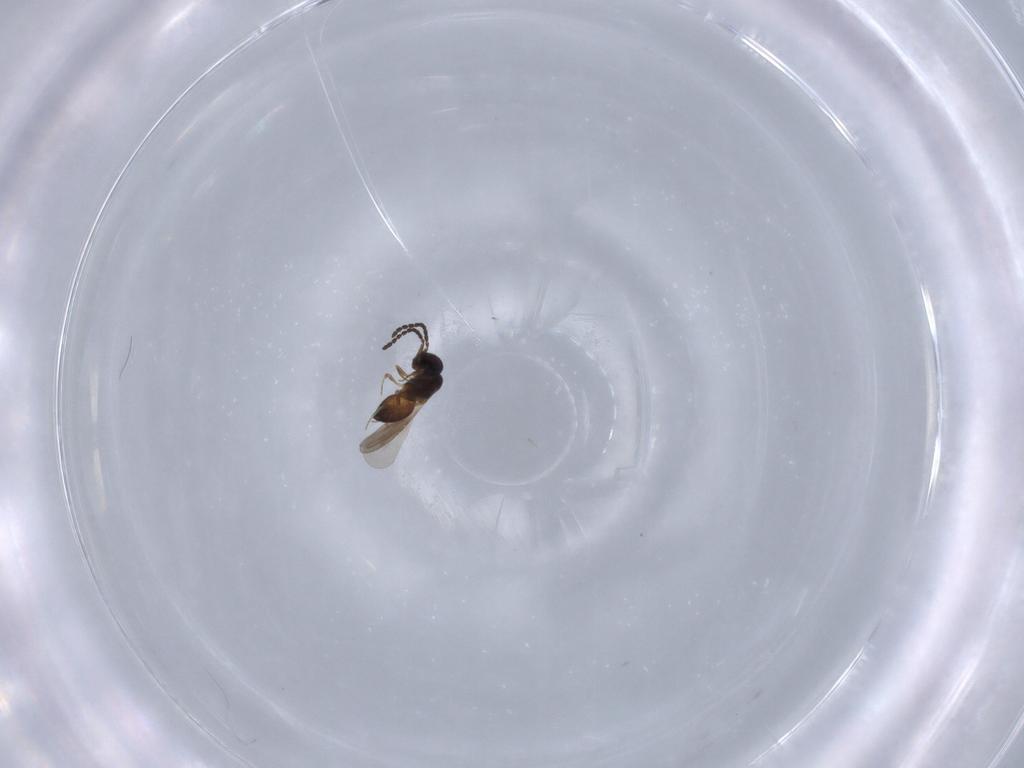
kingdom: Animalia
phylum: Arthropoda
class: Insecta
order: Hymenoptera
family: Ceraphronidae
